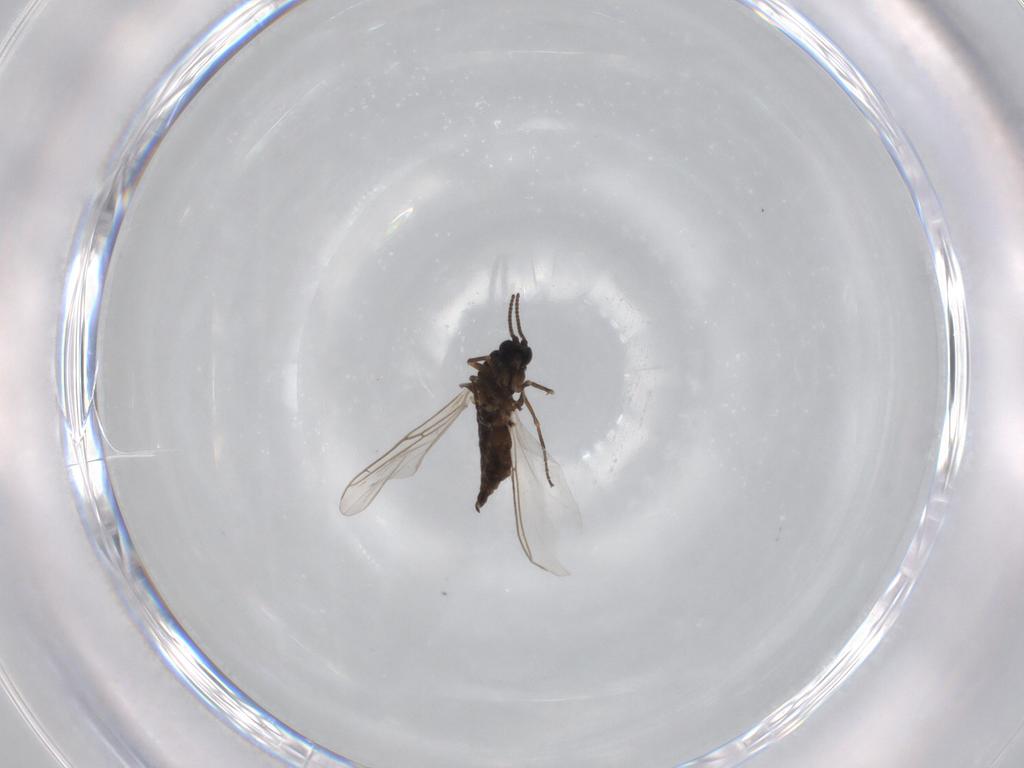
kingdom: Animalia
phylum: Arthropoda
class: Insecta
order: Diptera
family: Sciaridae
